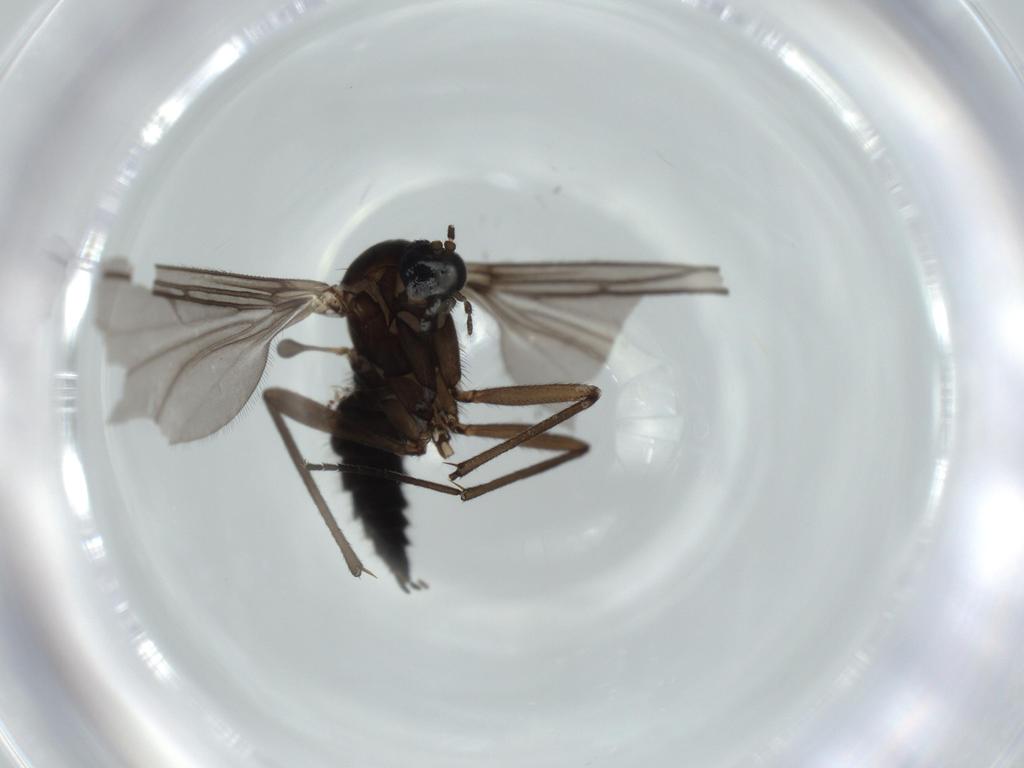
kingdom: Animalia
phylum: Arthropoda
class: Insecta
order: Diptera
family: Sciaridae
